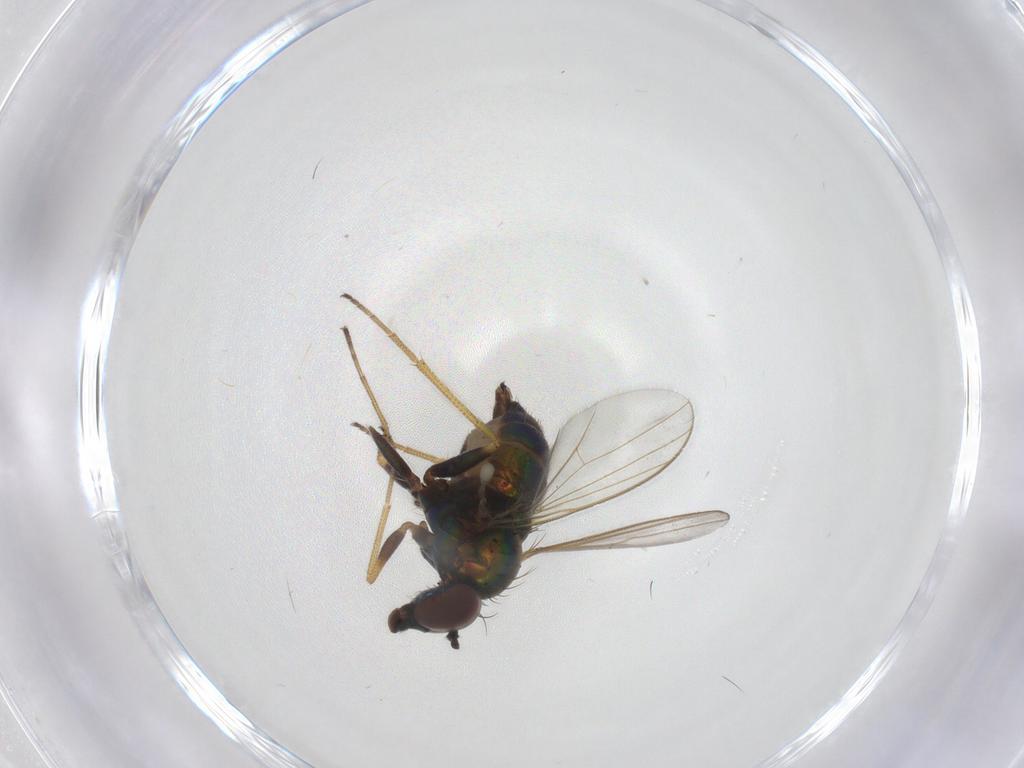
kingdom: Animalia
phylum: Arthropoda
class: Insecta
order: Diptera
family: Dolichopodidae
